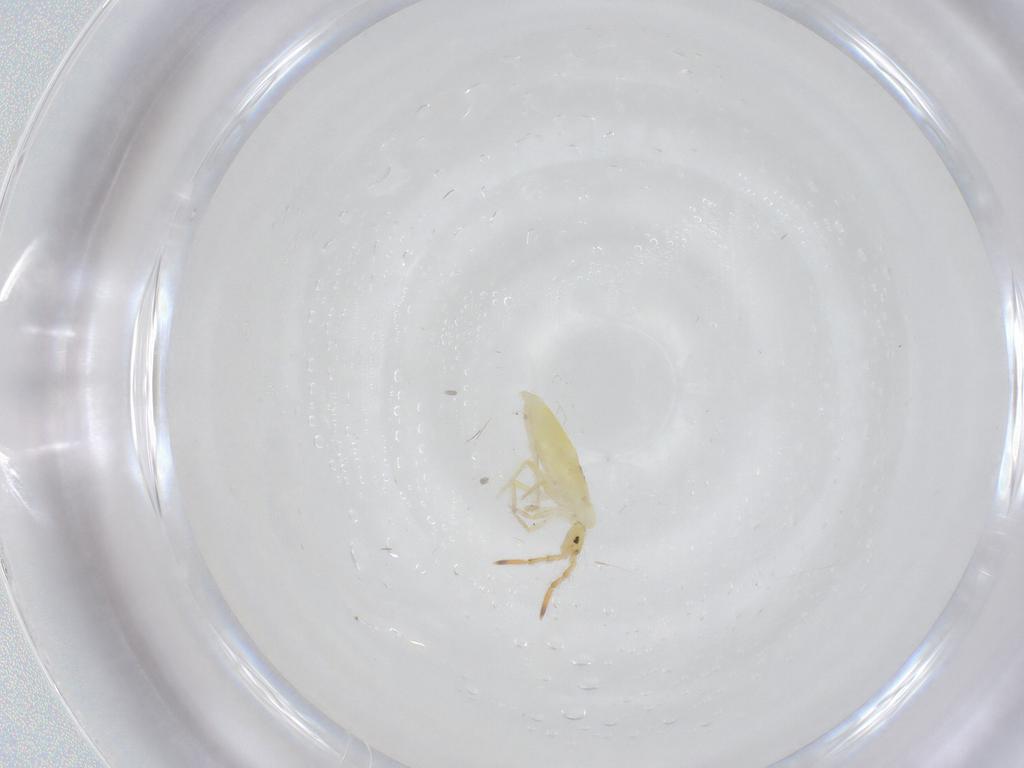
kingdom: Animalia
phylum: Arthropoda
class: Collembola
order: Entomobryomorpha
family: Entomobryidae
